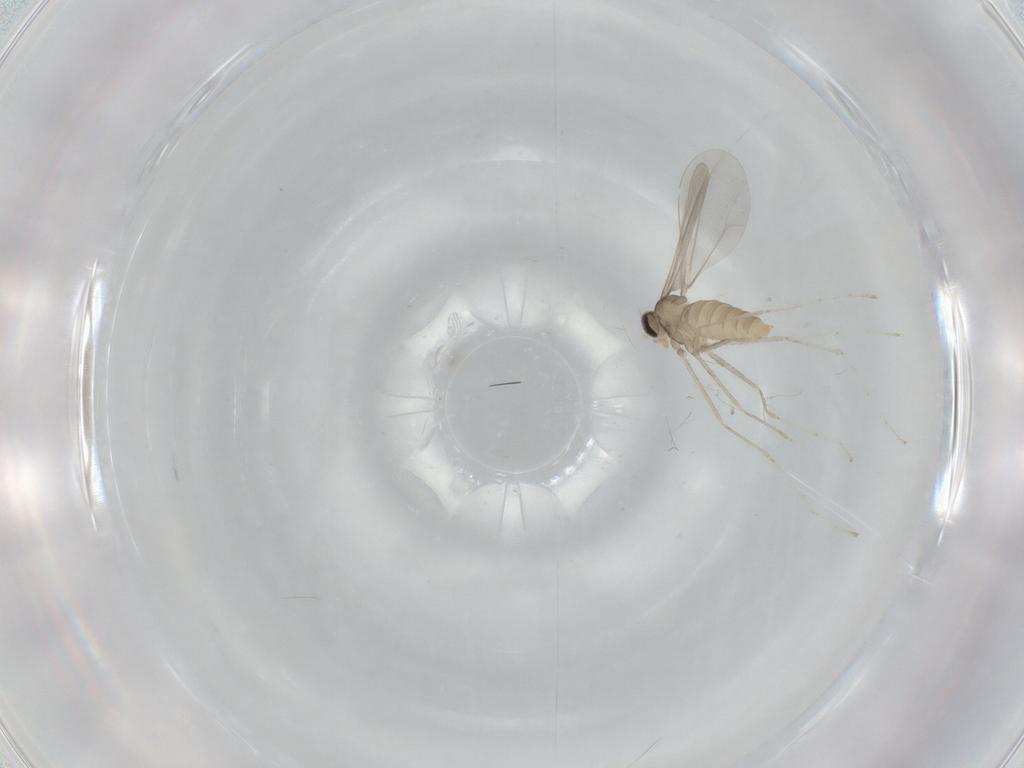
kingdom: Animalia
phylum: Arthropoda
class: Insecta
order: Diptera
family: Cecidomyiidae
